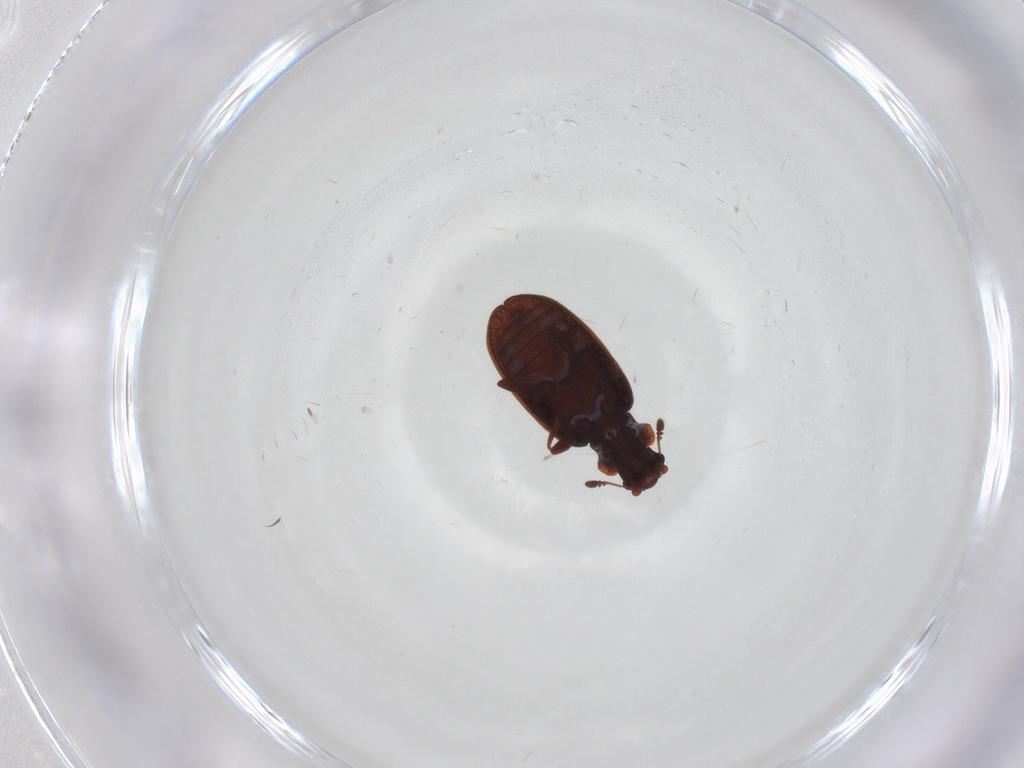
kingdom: Animalia
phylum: Arthropoda
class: Insecta
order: Coleoptera
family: Latridiidae
